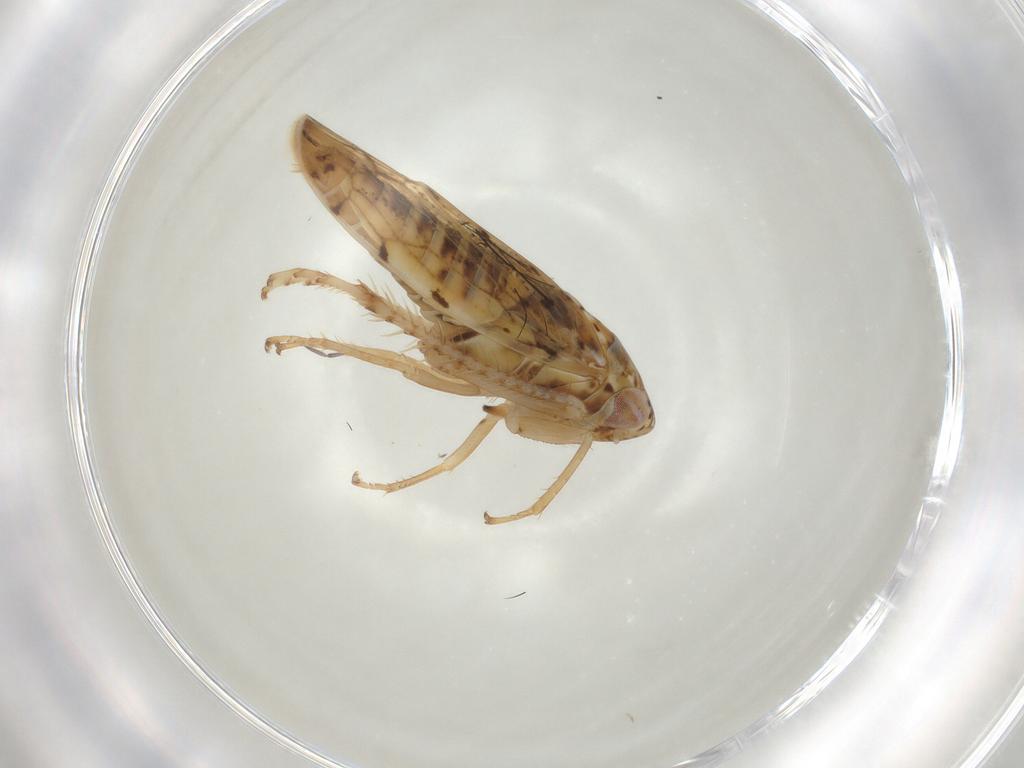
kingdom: Animalia
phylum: Arthropoda
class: Insecta
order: Hemiptera
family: Cicadellidae
